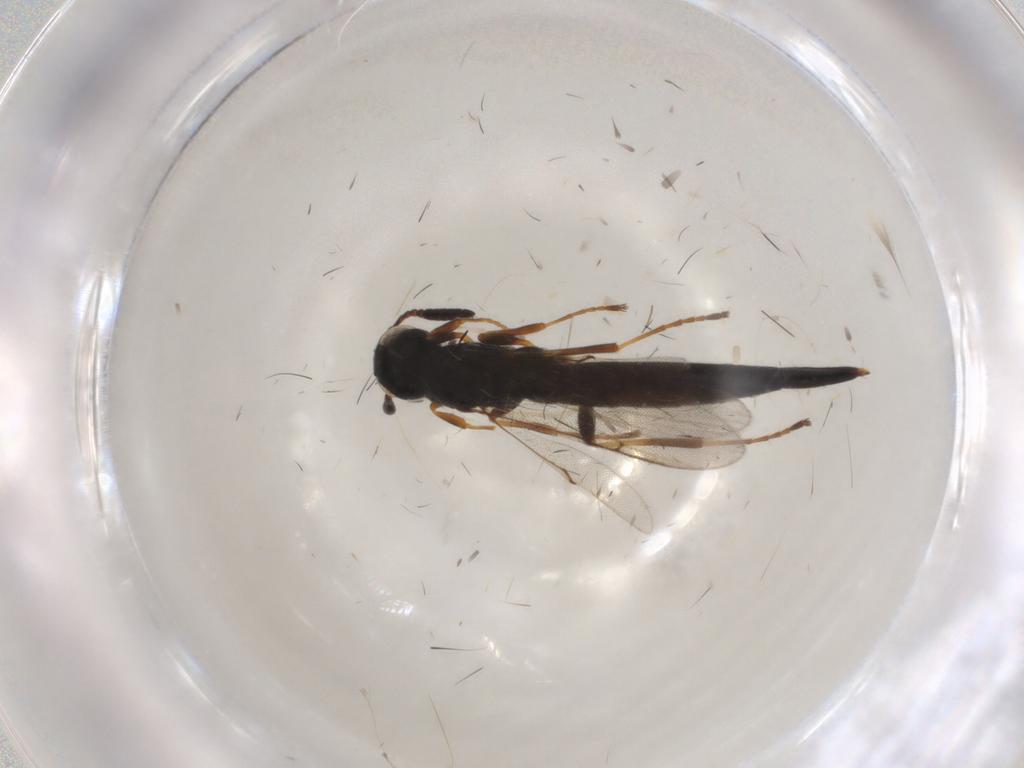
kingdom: Animalia
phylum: Arthropoda
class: Insecta
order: Hymenoptera
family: Scelionidae
